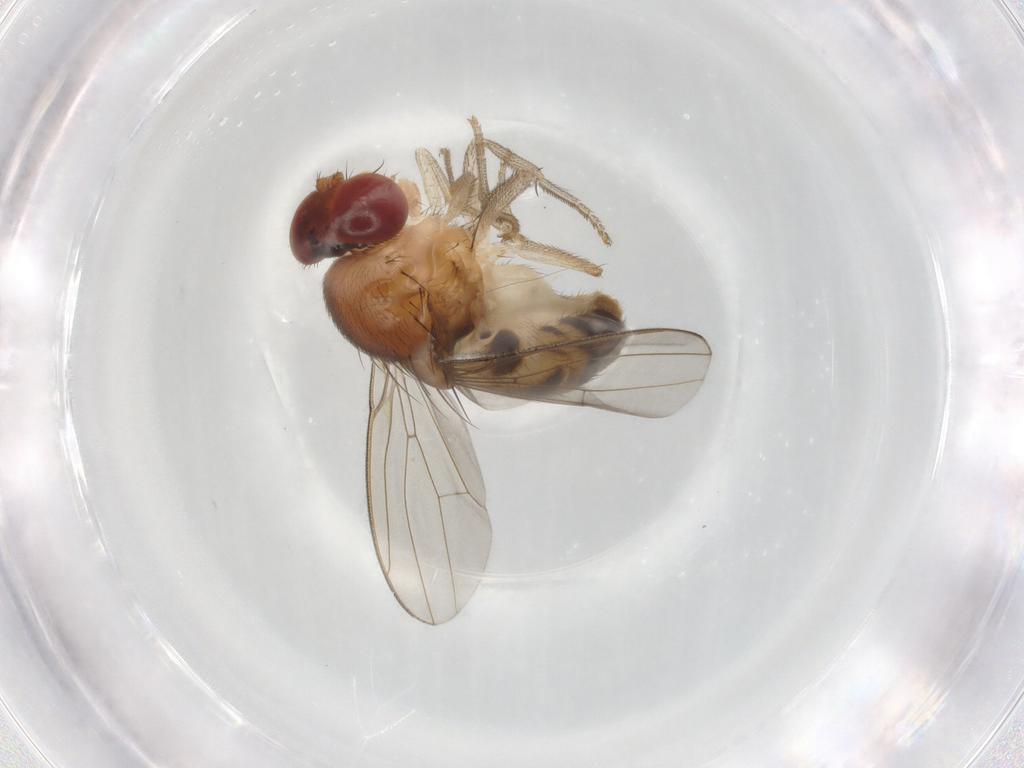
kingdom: Animalia
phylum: Arthropoda
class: Insecta
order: Diptera
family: Drosophilidae
